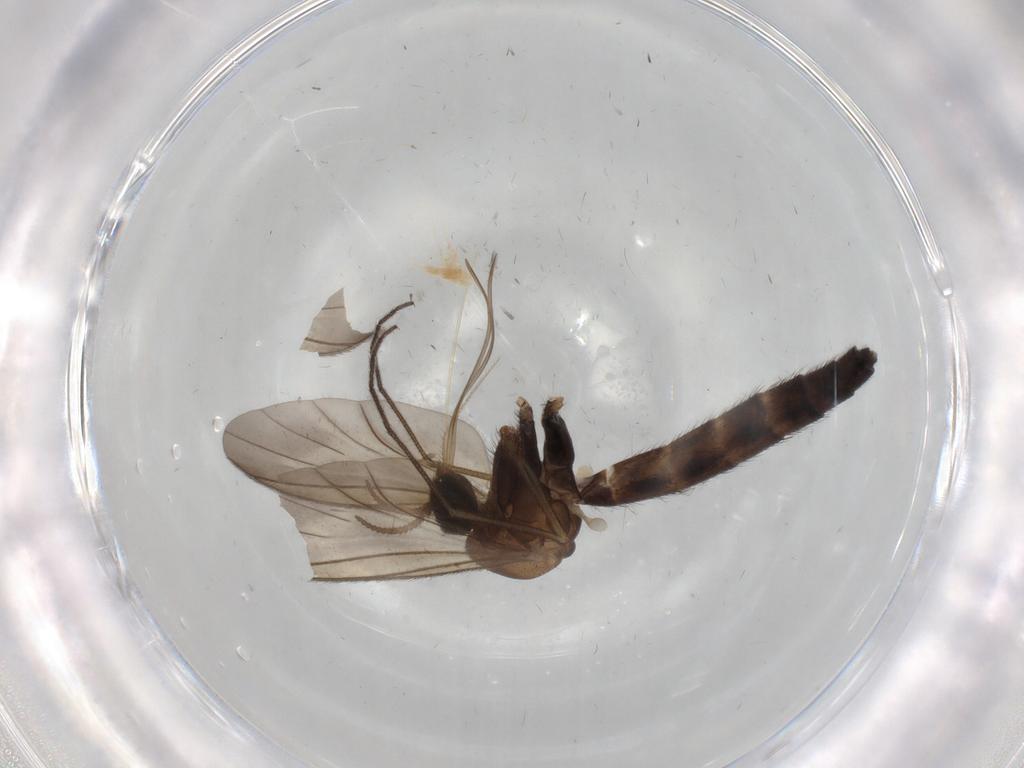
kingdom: Animalia
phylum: Arthropoda
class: Insecta
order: Diptera
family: Keroplatidae
